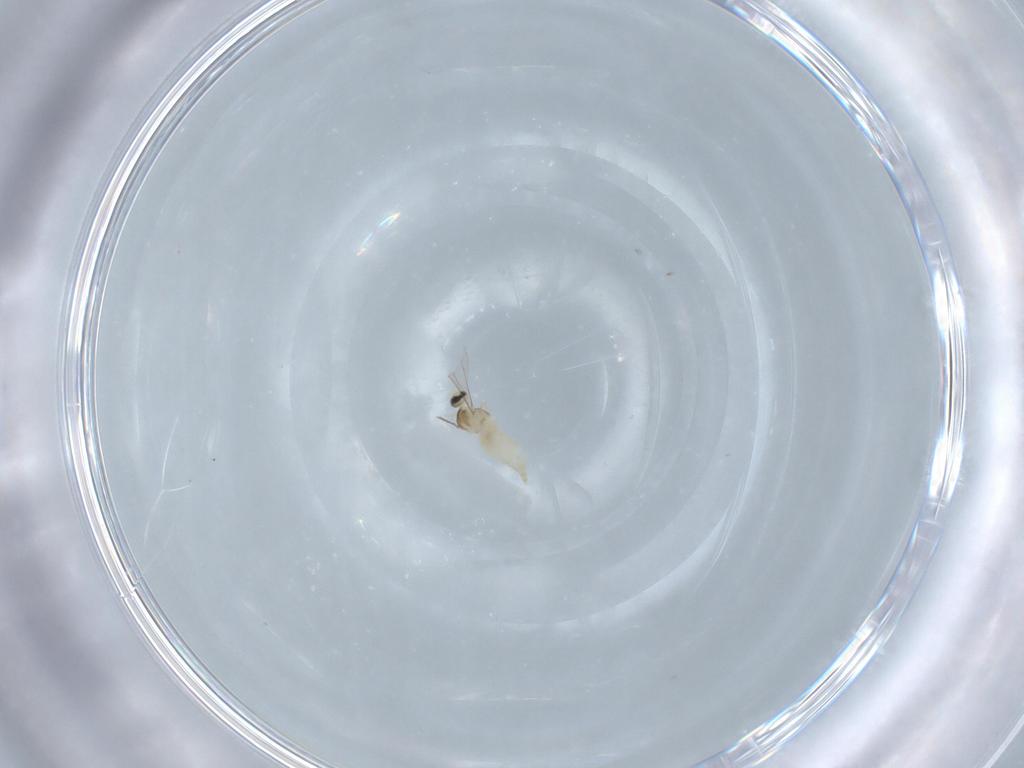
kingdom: Animalia
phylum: Arthropoda
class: Insecta
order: Diptera
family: Cecidomyiidae
